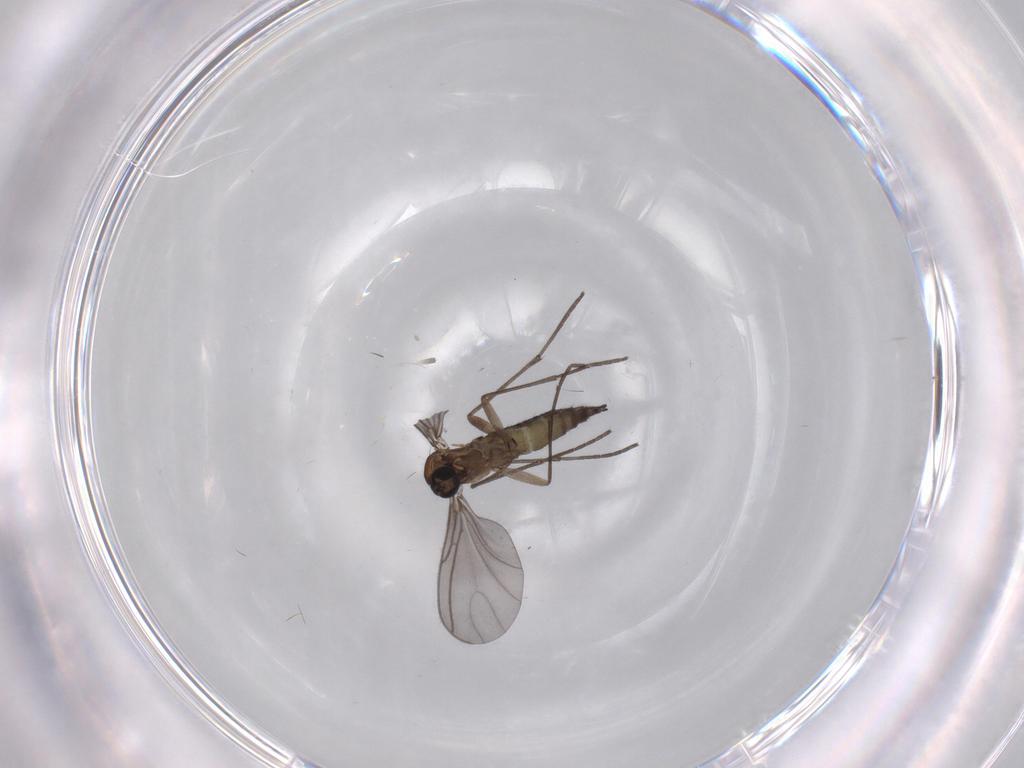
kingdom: Animalia
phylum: Arthropoda
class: Insecta
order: Diptera
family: Sciaridae
